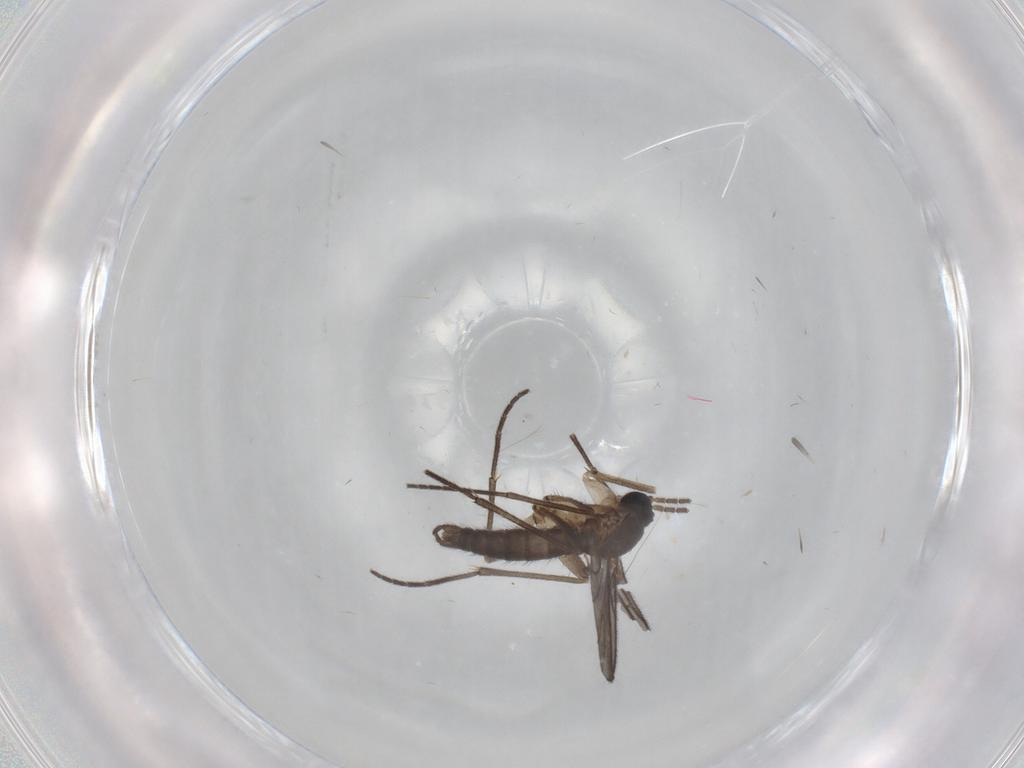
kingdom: Animalia
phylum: Arthropoda
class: Insecta
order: Diptera
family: Sciaridae
